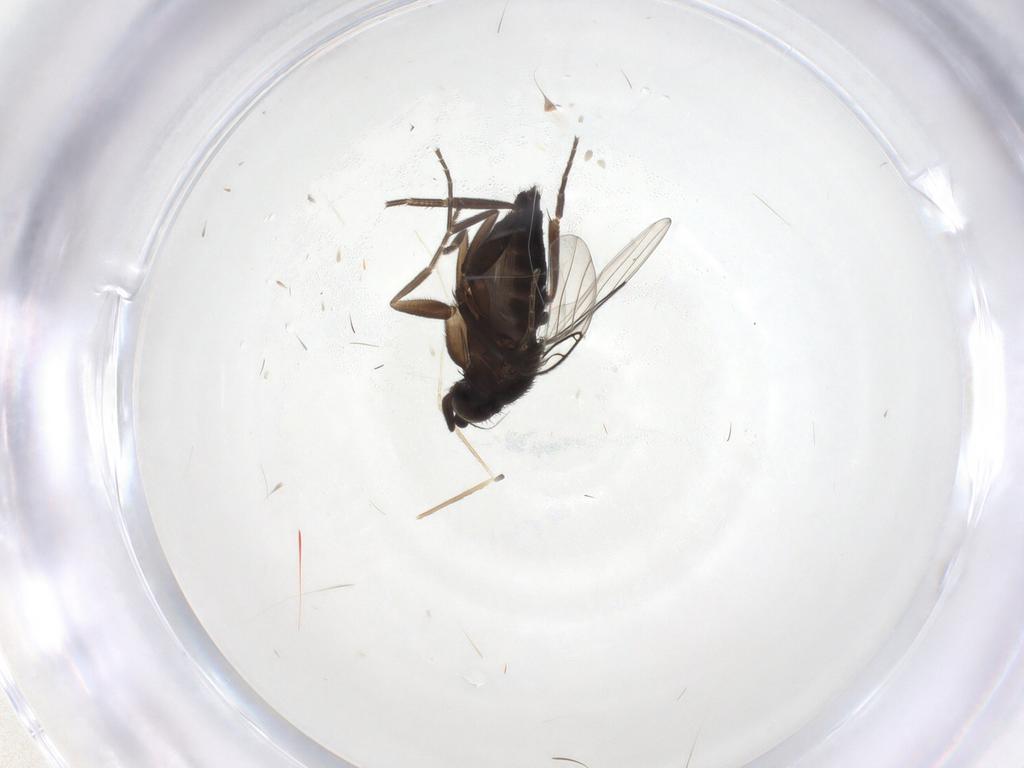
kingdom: Animalia
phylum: Arthropoda
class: Insecta
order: Diptera
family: Phoridae
